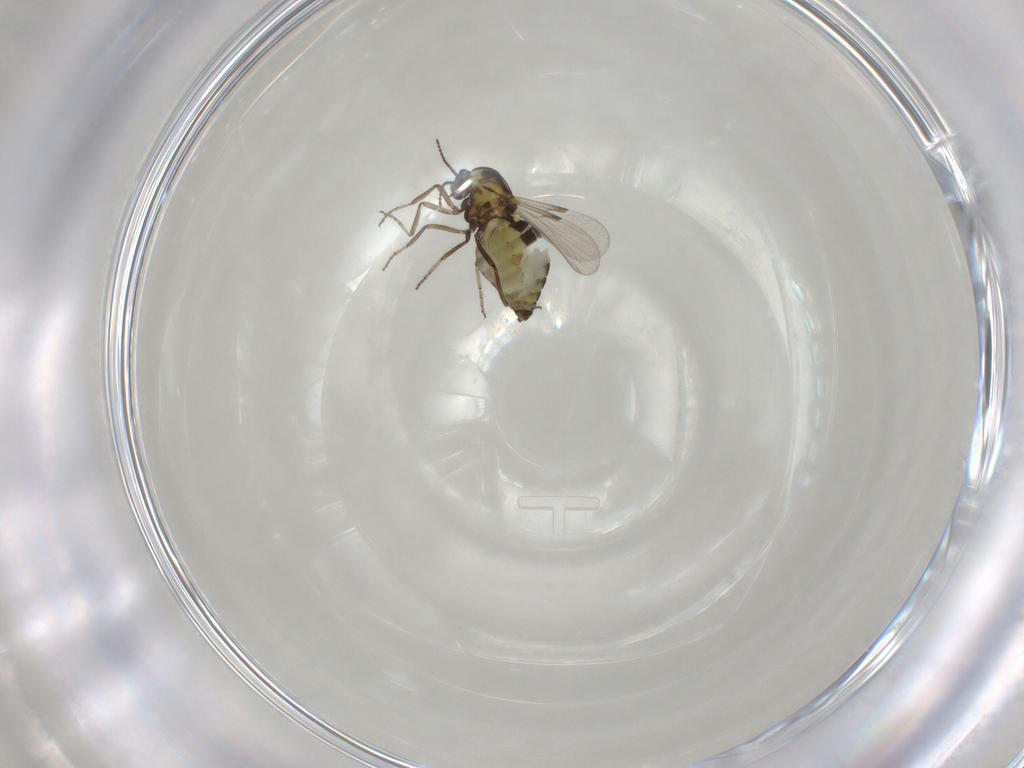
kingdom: Animalia
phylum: Arthropoda
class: Insecta
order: Diptera
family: Ceratopogonidae
